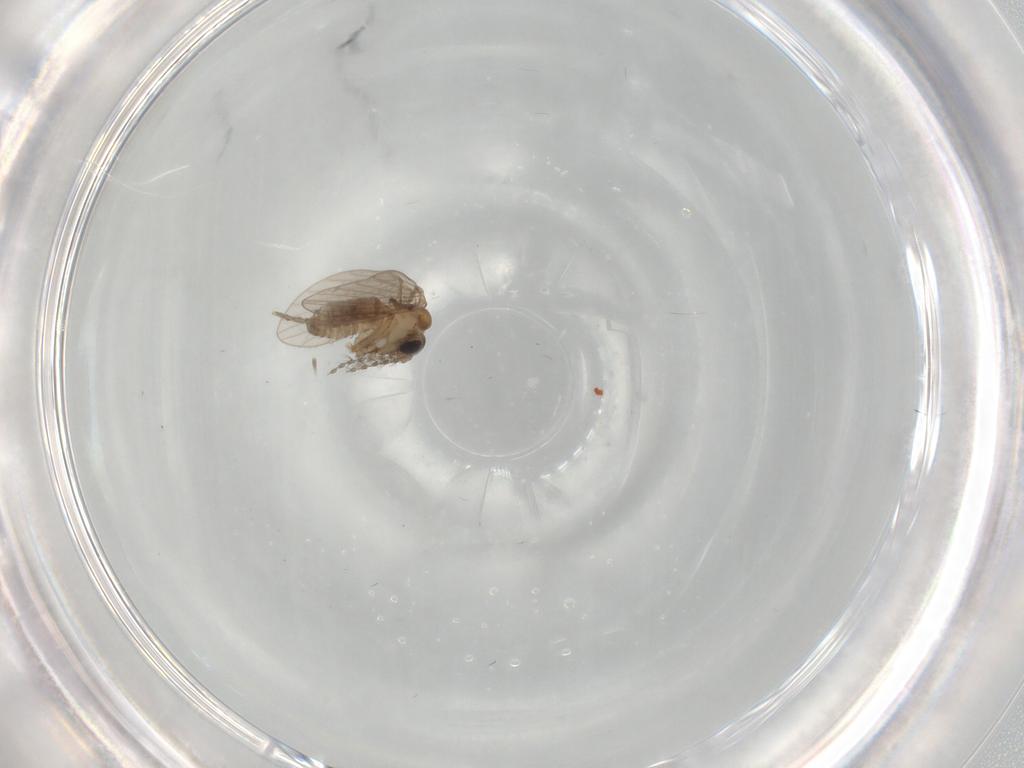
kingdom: Animalia
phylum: Arthropoda
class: Insecta
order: Diptera
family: Psychodidae
